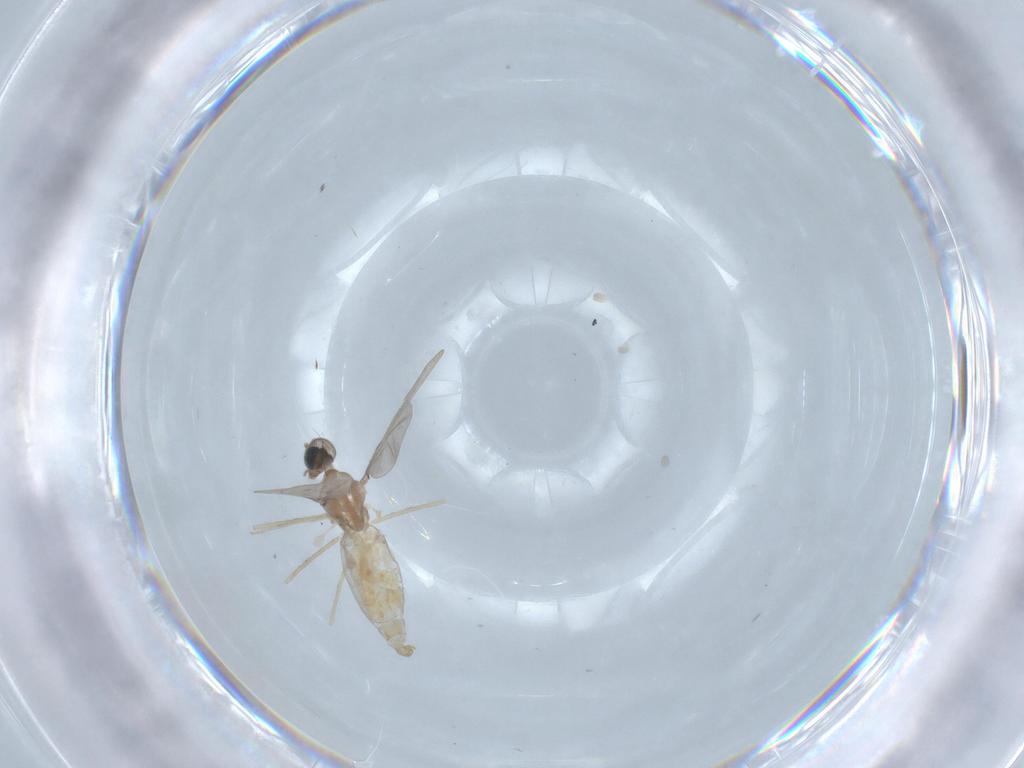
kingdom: Animalia
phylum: Arthropoda
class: Insecta
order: Diptera
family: Cecidomyiidae
